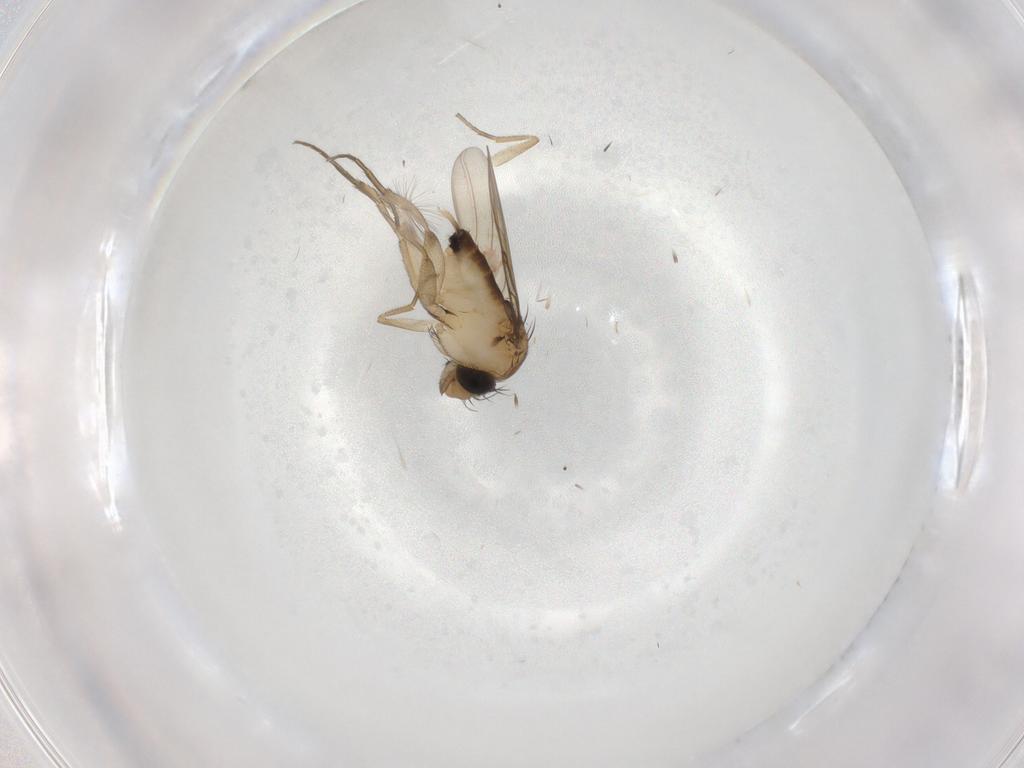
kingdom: Animalia
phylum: Arthropoda
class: Insecta
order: Diptera
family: Phoridae
